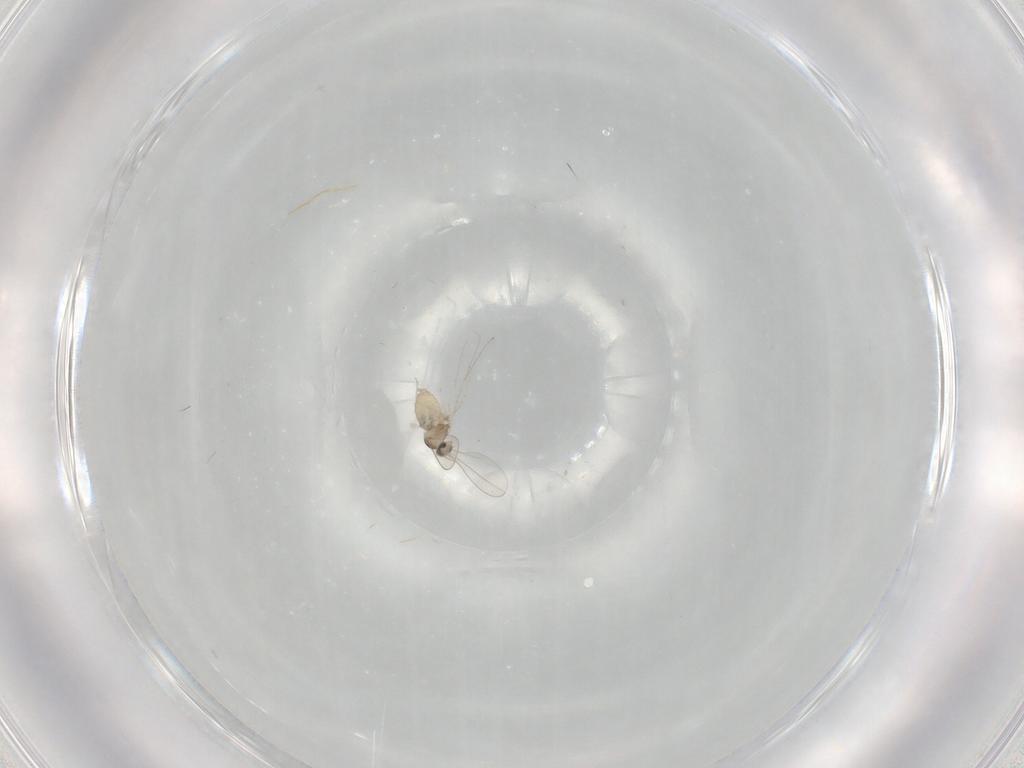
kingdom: Animalia
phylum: Arthropoda
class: Insecta
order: Diptera
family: Cecidomyiidae
